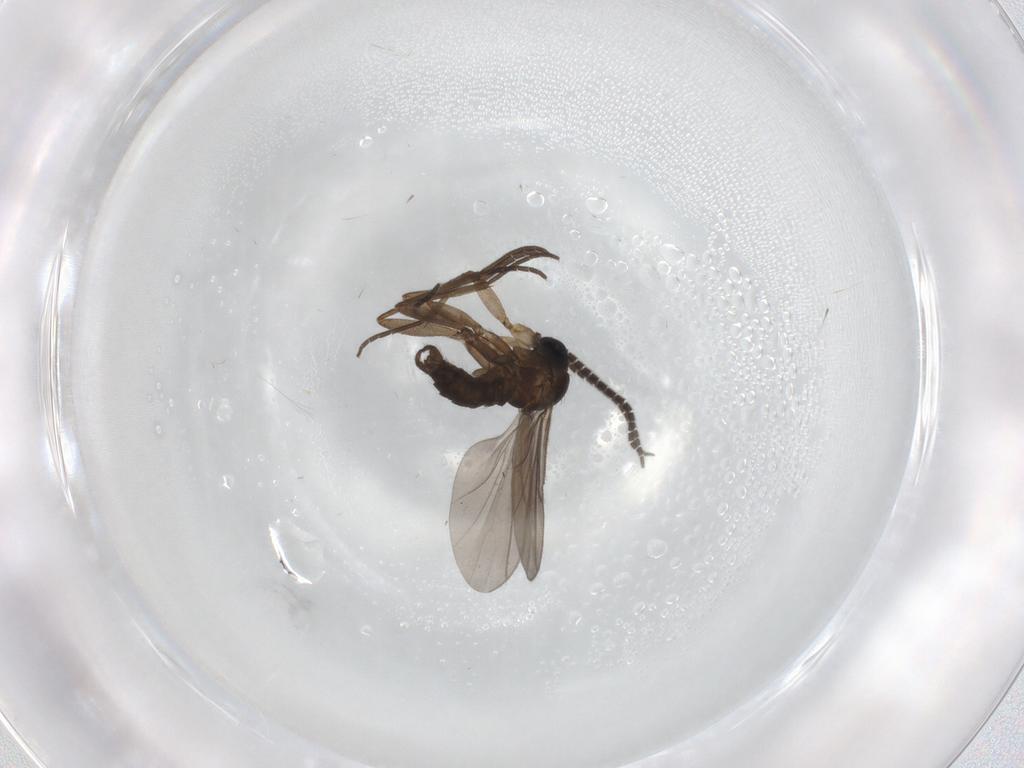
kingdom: Animalia
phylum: Arthropoda
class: Insecta
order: Diptera
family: Sciaridae
